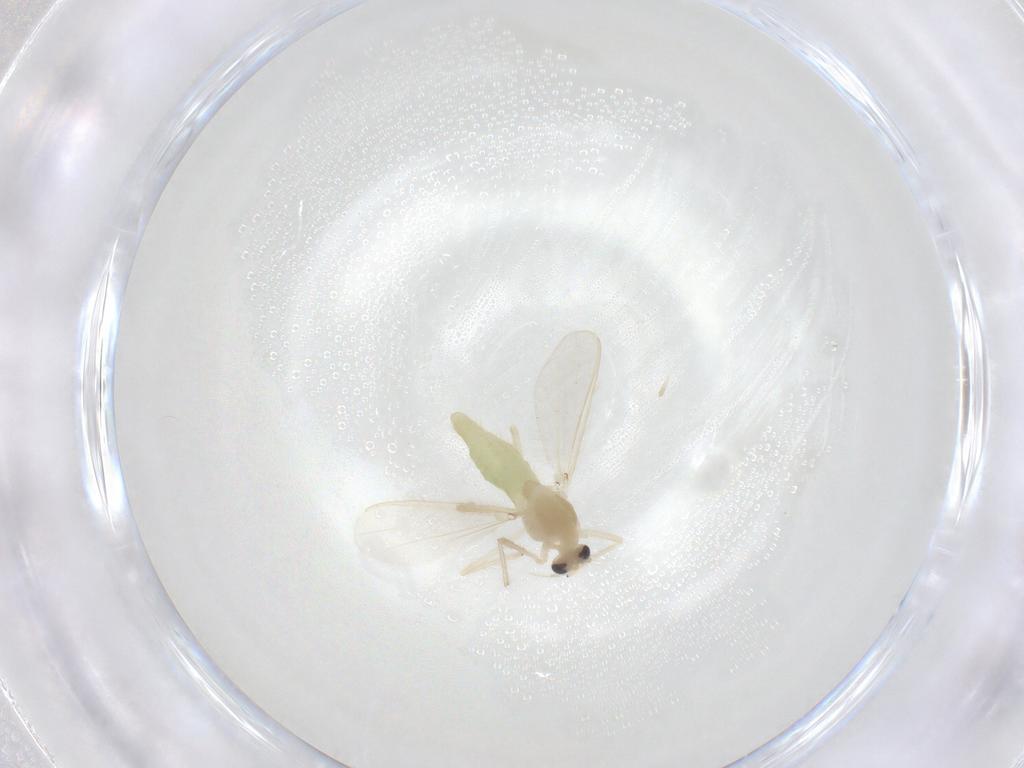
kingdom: Animalia
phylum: Arthropoda
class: Insecta
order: Diptera
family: Chironomidae
